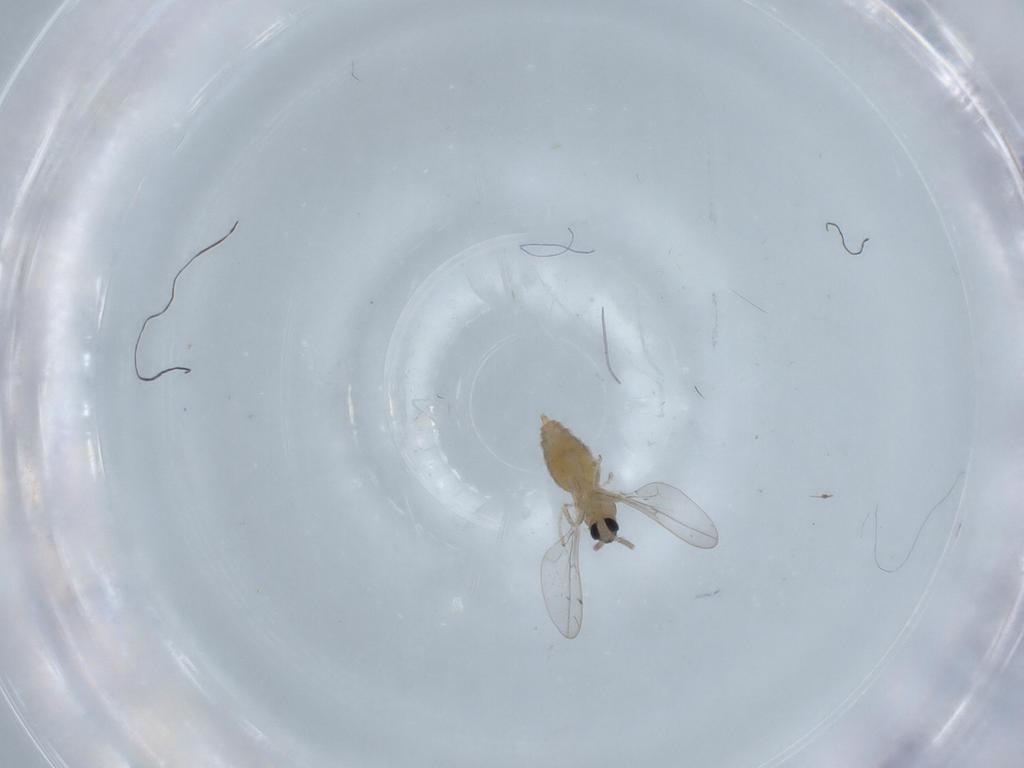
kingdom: Animalia
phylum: Arthropoda
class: Insecta
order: Diptera
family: Cecidomyiidae
